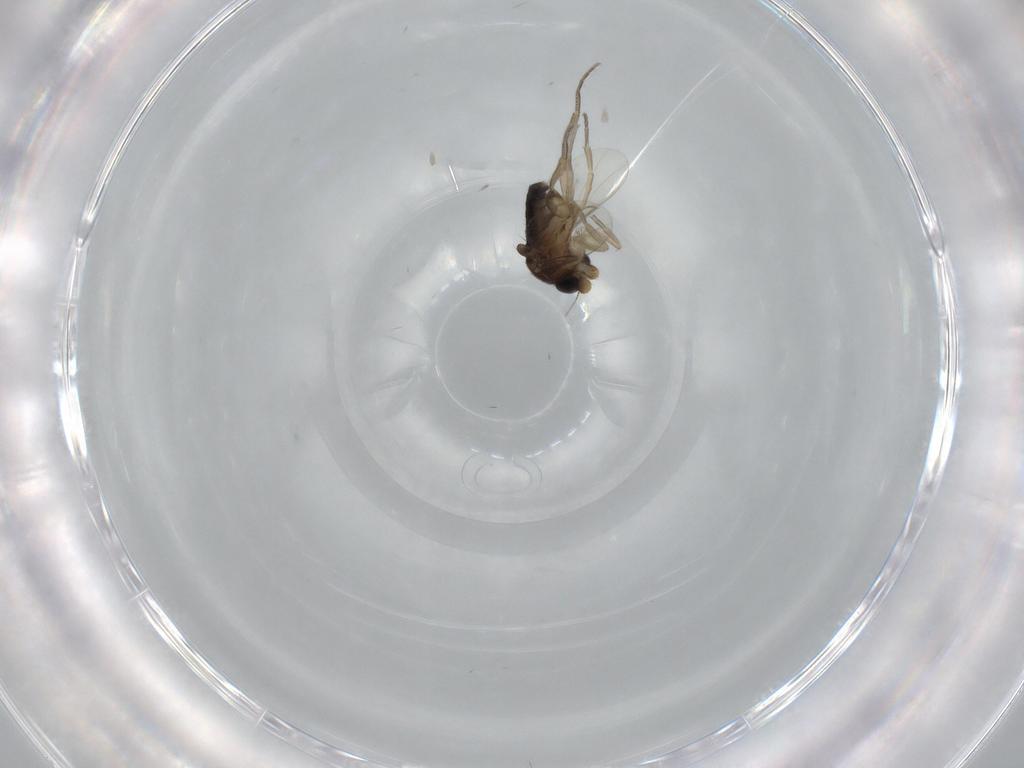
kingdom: Animalia
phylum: Arthropoda
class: Insecta
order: Diptera
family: Phoridae
